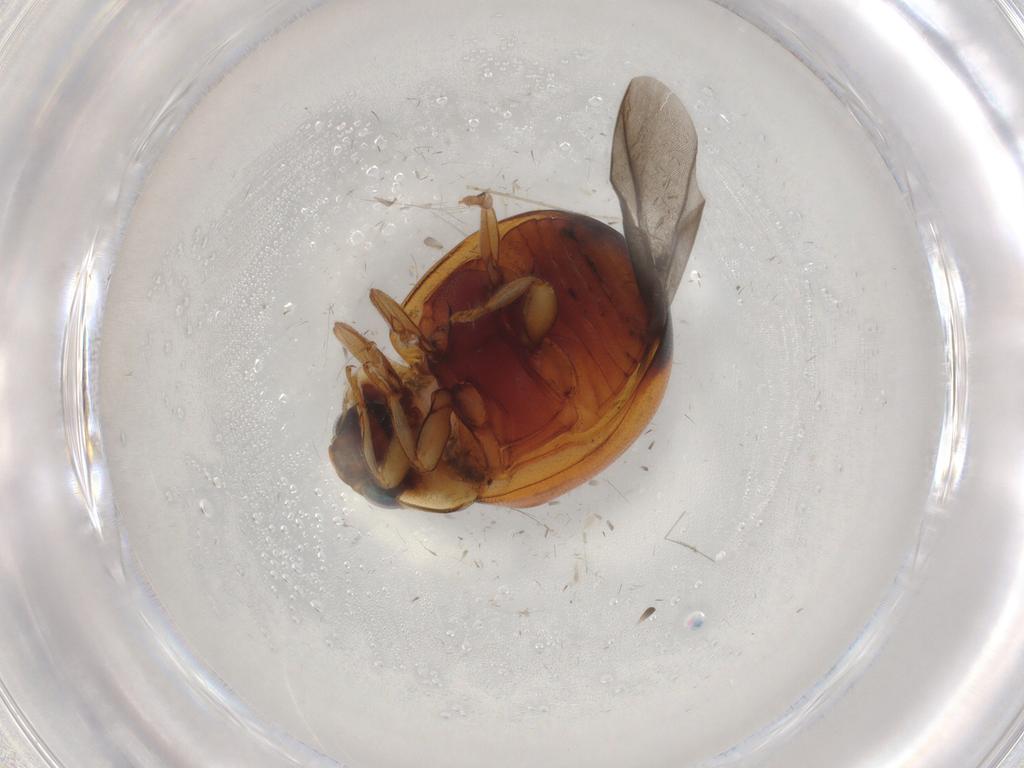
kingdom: Animalia
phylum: Arthropoda
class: Insecta
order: Coleoptera
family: Coccinellidae
